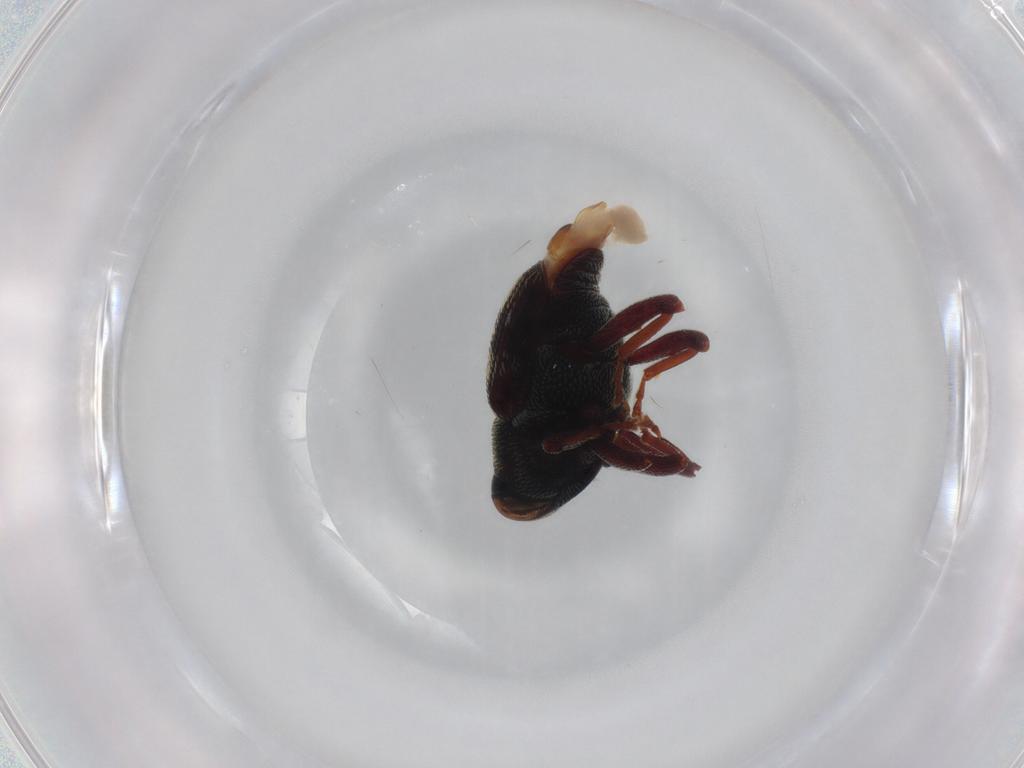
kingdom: Animalia
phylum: Arthropoda
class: Insecta
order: Coleoptera
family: Curculionidae
